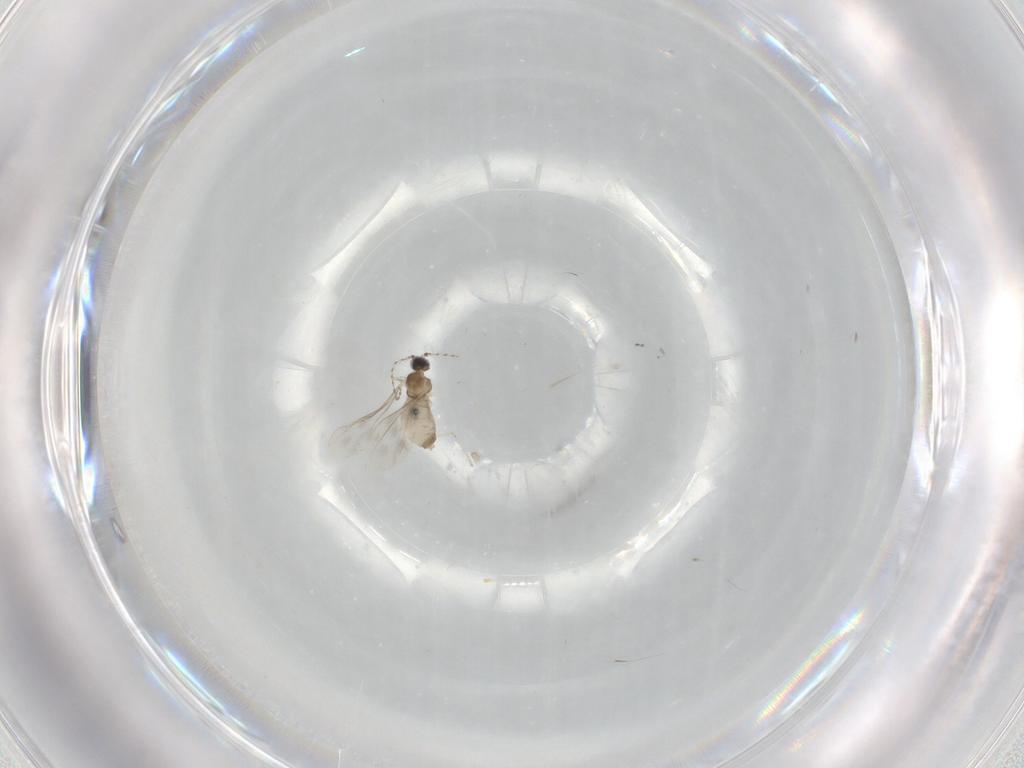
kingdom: Animalia
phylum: Arthropoda
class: Insecta
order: Diptera
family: Cecidomyiidae
